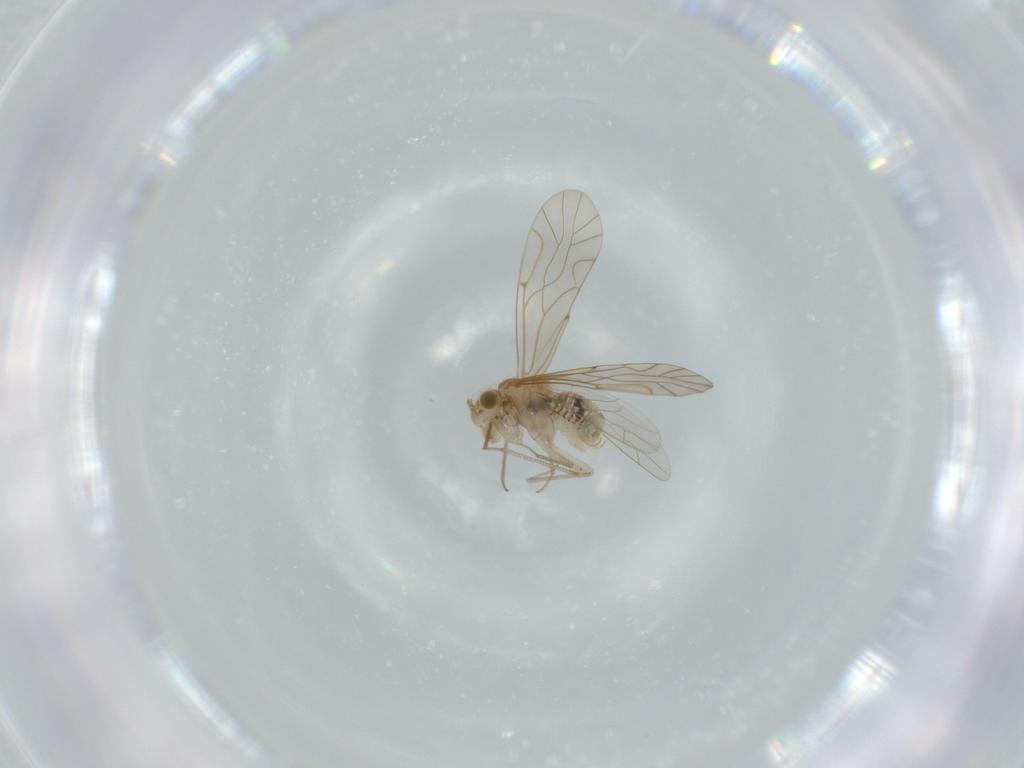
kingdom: Animalia
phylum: Arthropoda
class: Insecta
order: Psocodea
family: Lachesillidae
